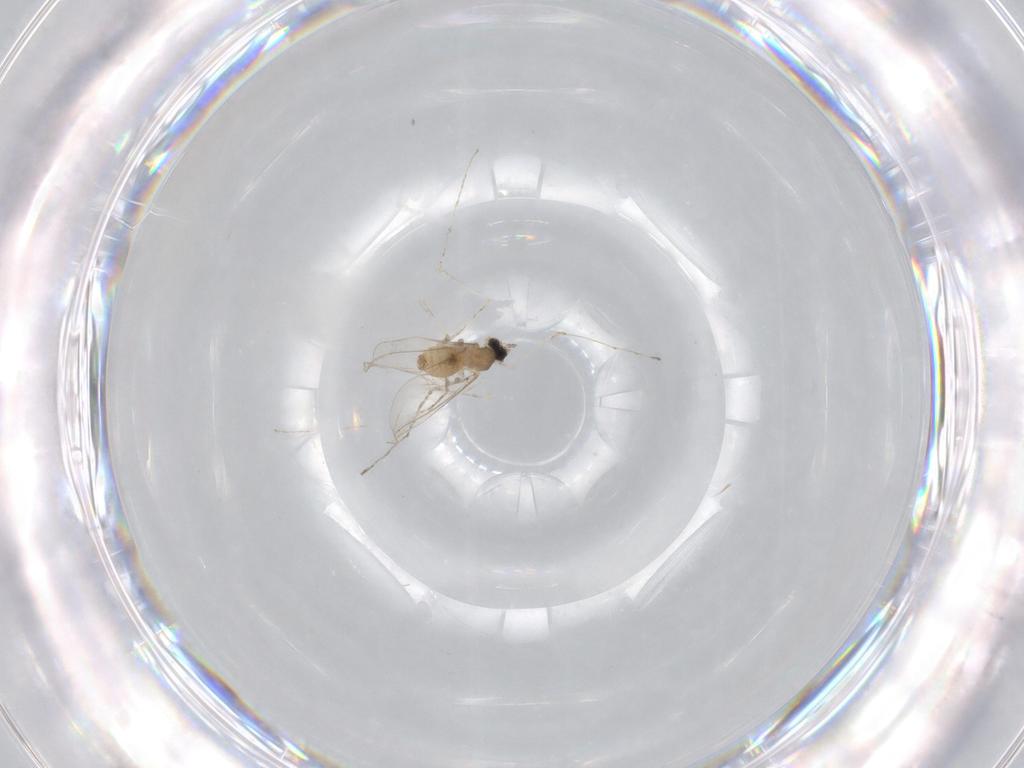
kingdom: Animalia
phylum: Arthropoda
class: Insecta
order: Diptera
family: Cecidomyiidae
